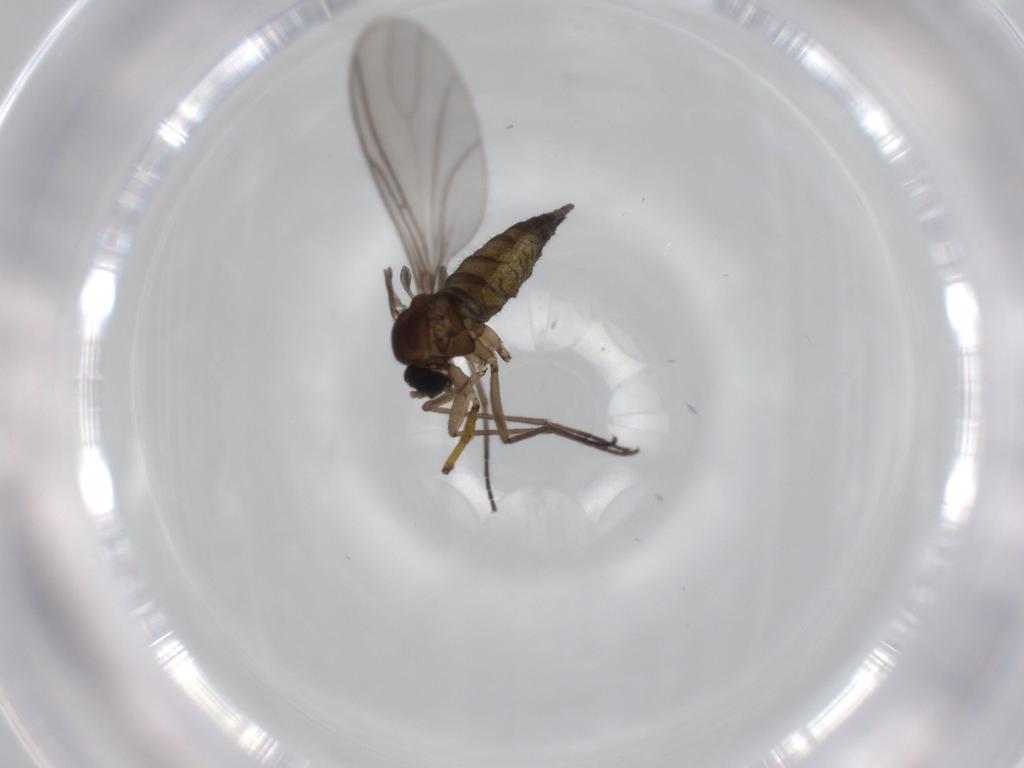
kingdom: Animalia
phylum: Arthropoda
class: Insecta
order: Diptera
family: Sciaridae
